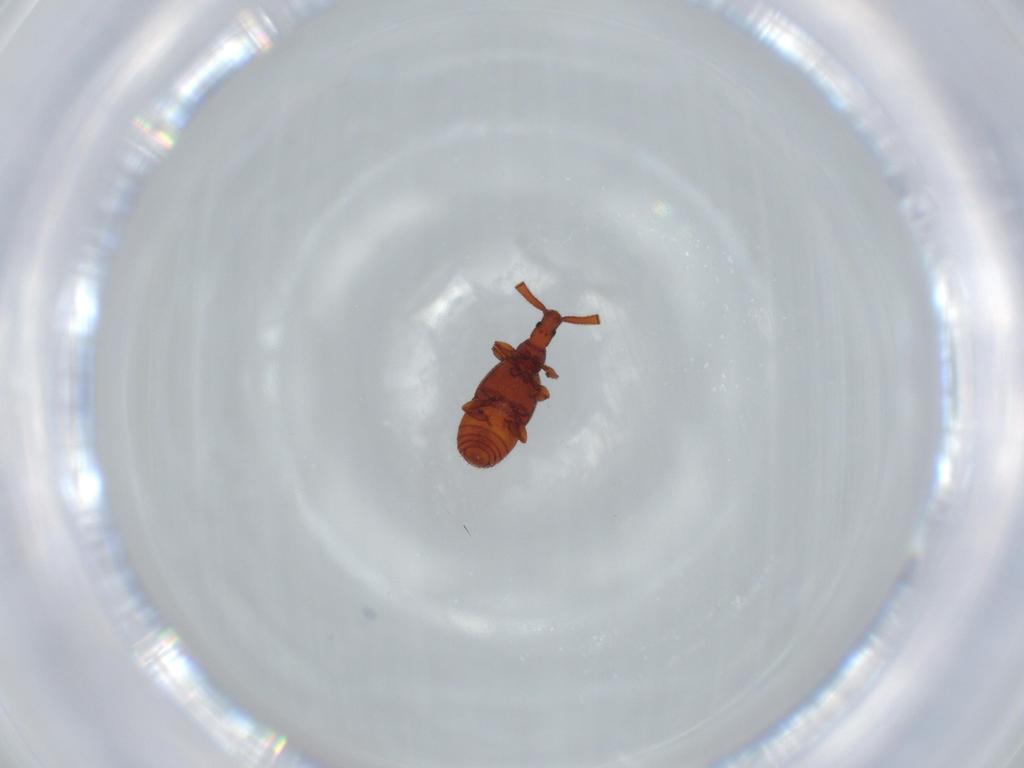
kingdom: Animalia
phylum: Arthropoda
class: Insecta
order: Coleoptera
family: Staphylinidae
